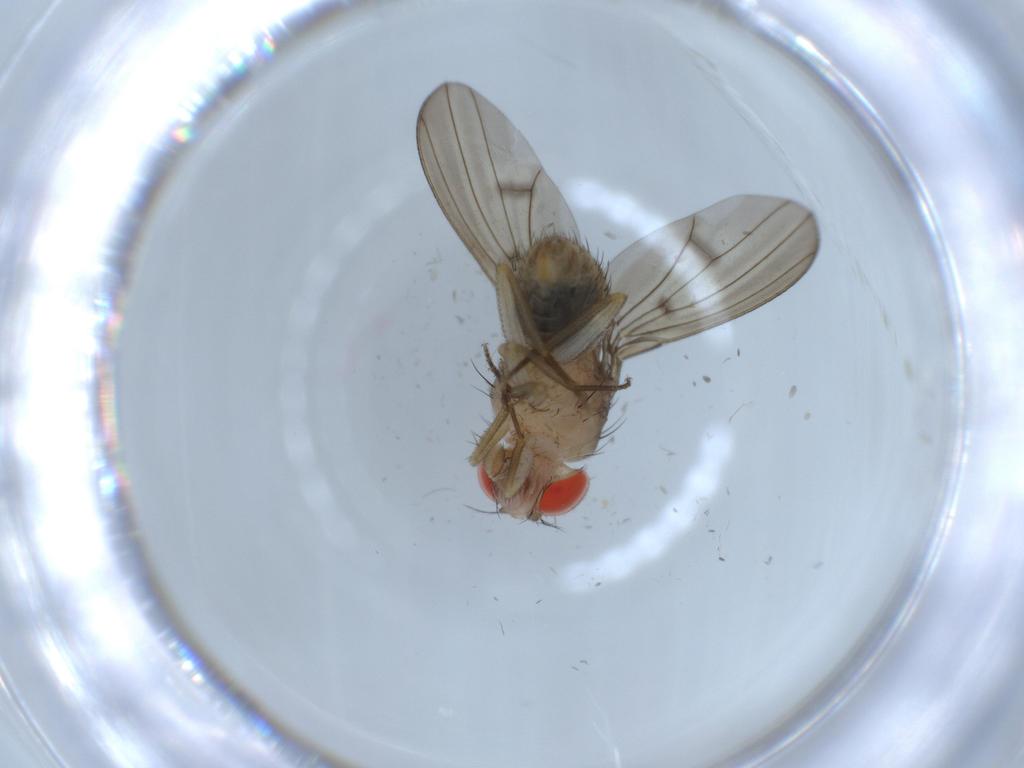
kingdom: Animalia
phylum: Arthropoda
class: Insecta
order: Diptera
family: Drosophilidae
